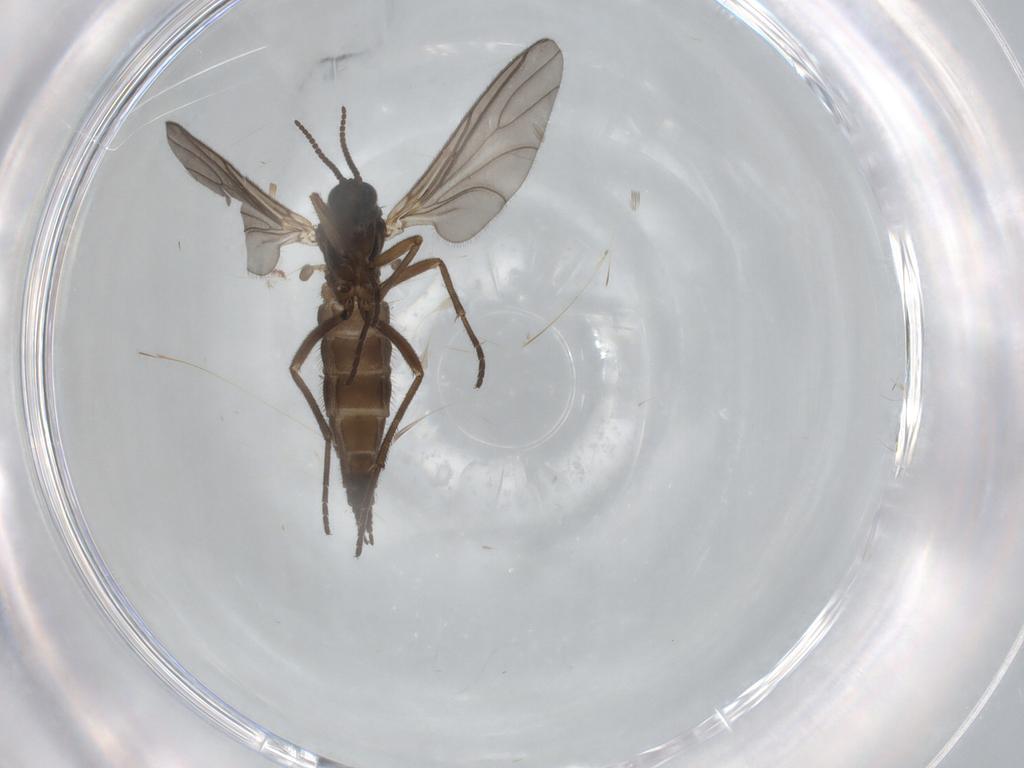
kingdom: Animalia
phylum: Arthropoda
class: Insecta
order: Diptera
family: Sciaridae
